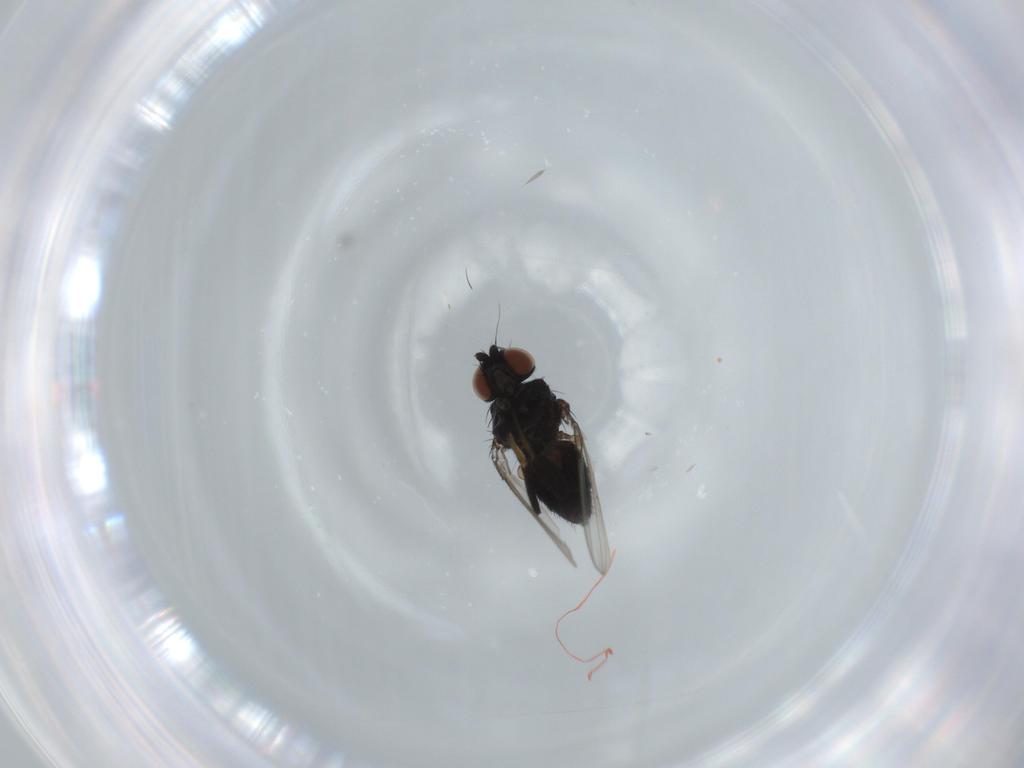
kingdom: Animalia
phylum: Arthropoda
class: Insecta
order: Diptera
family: Milichiidae
